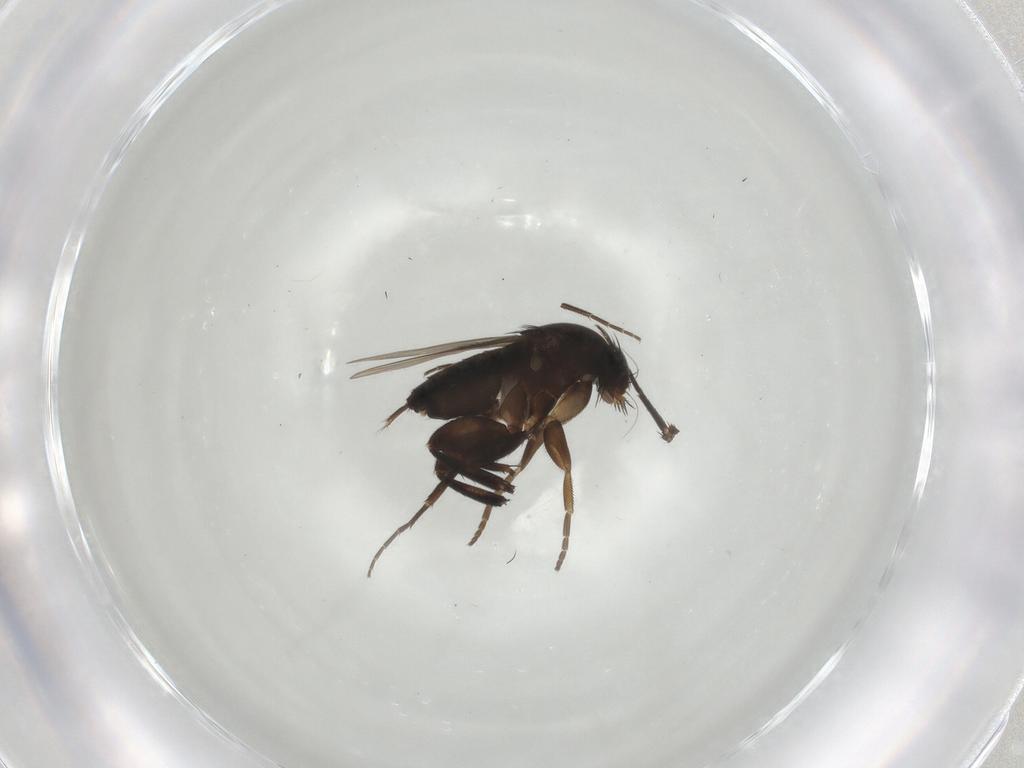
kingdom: Animalia
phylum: Arthropoda
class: Insecta
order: Diptera
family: Phoridae
